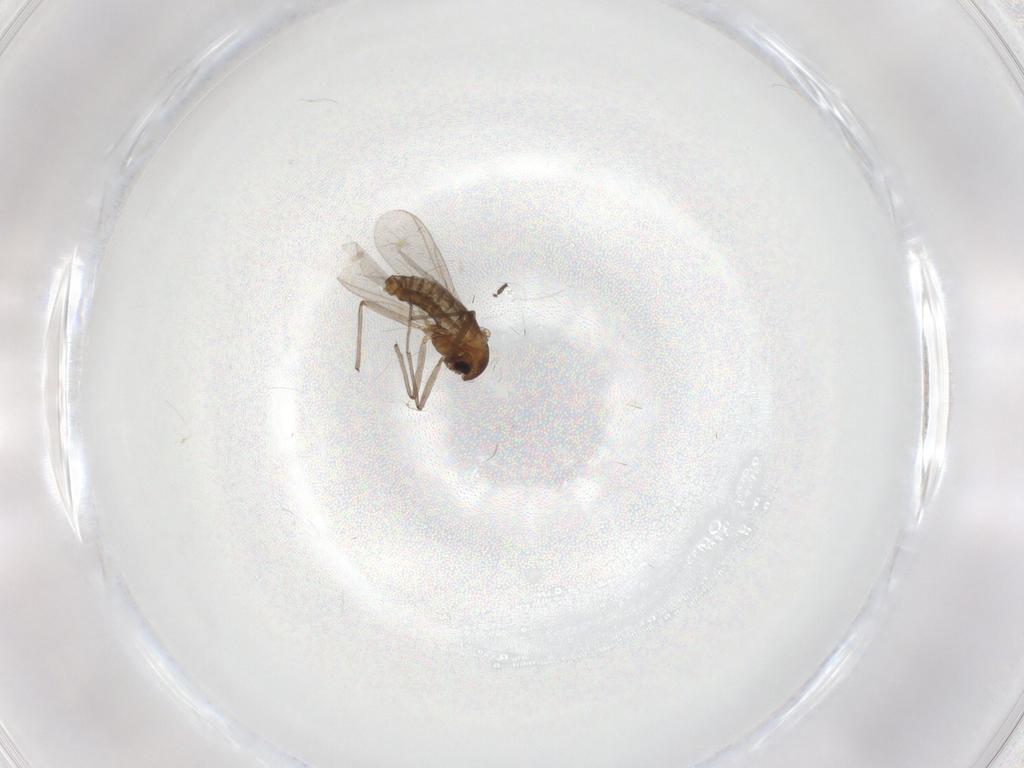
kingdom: Animalia
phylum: Arthropoda
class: Insecta
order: Diptera
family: Chironomidae
